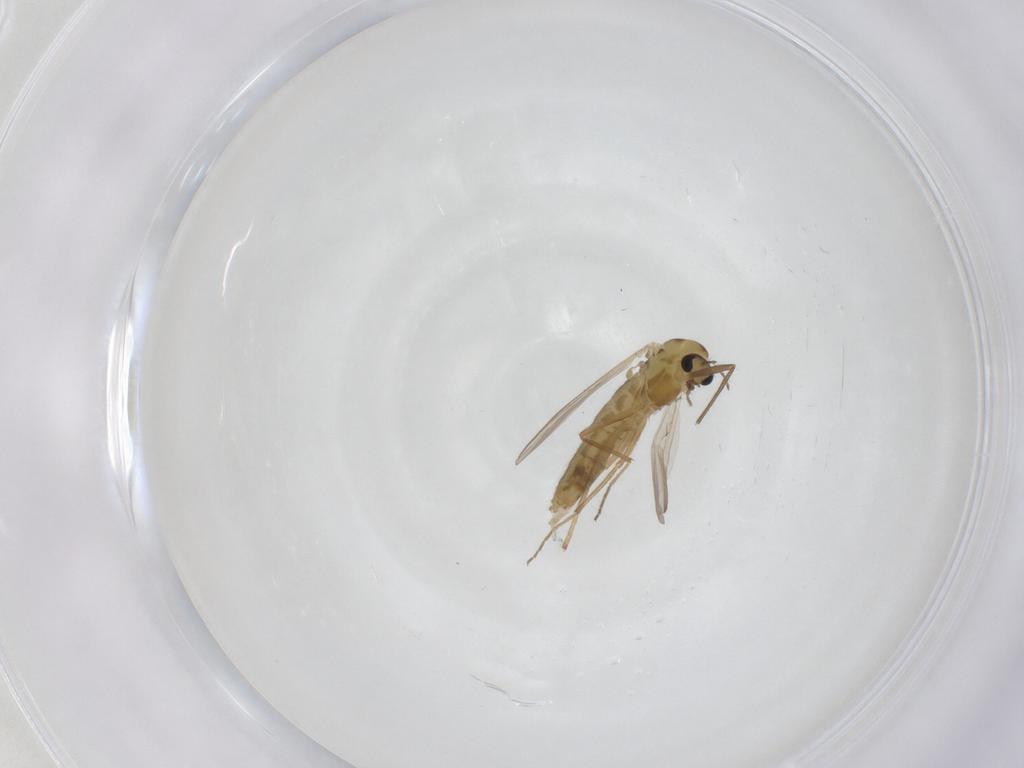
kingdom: Animalia
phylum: Arthropoda
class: Insecta
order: Diptera
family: Chironomidae
